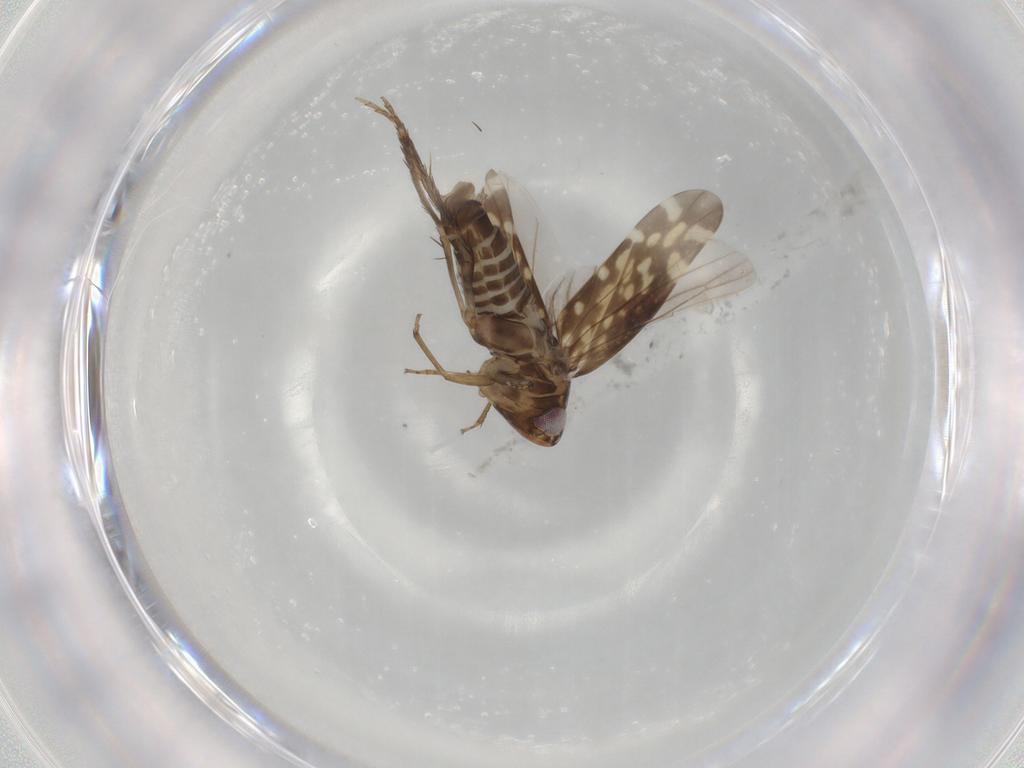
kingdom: Animalia
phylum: Arthropoda
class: Insecta
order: Hemiptera
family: Cicadellidae
